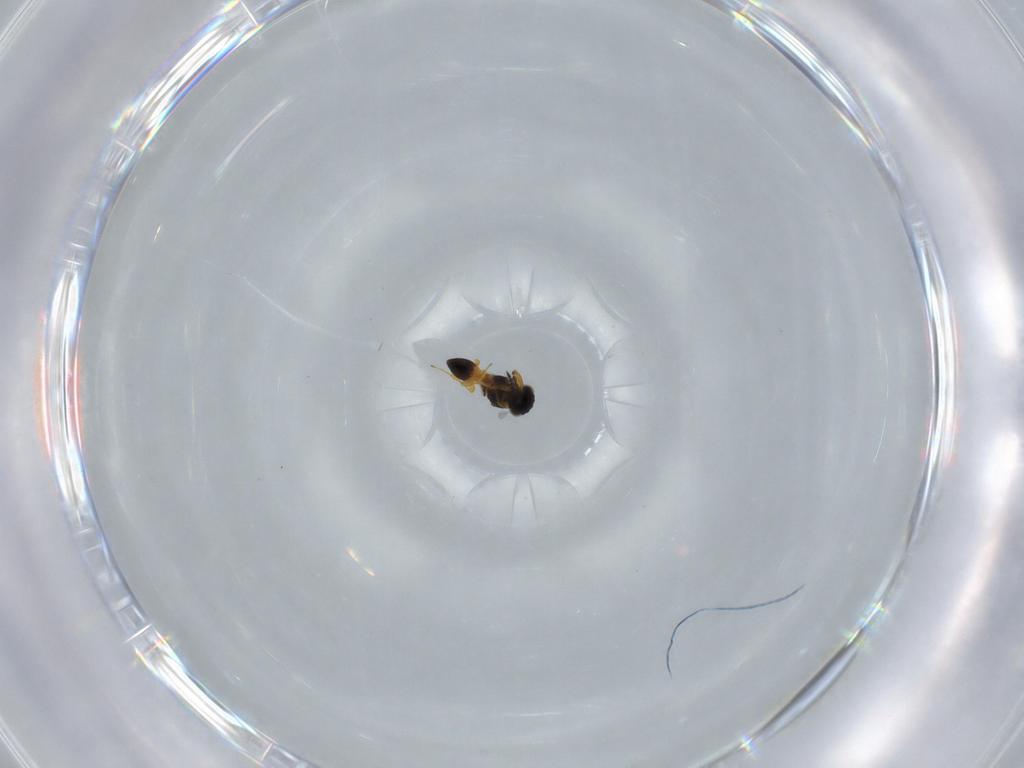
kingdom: Animalia
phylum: Arthropoda
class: Insecta
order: Hymenoptera
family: Platygastridae
